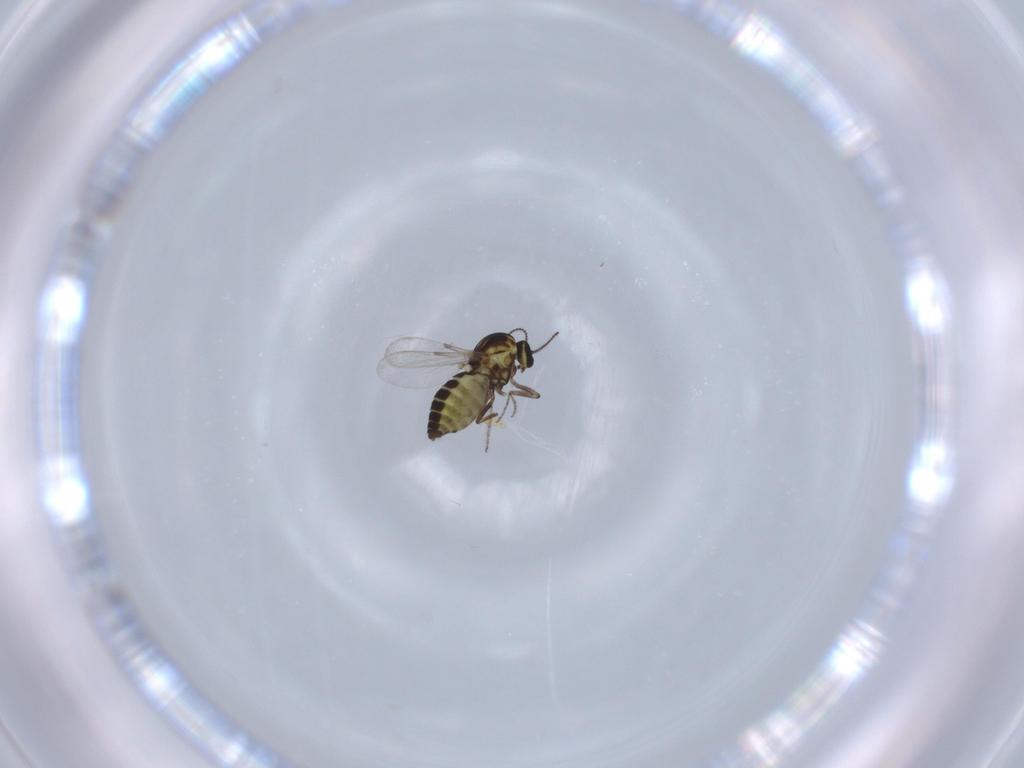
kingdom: Animalia
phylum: Arthropoda
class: Insecta
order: Diptera
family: Ceratopogonidae
